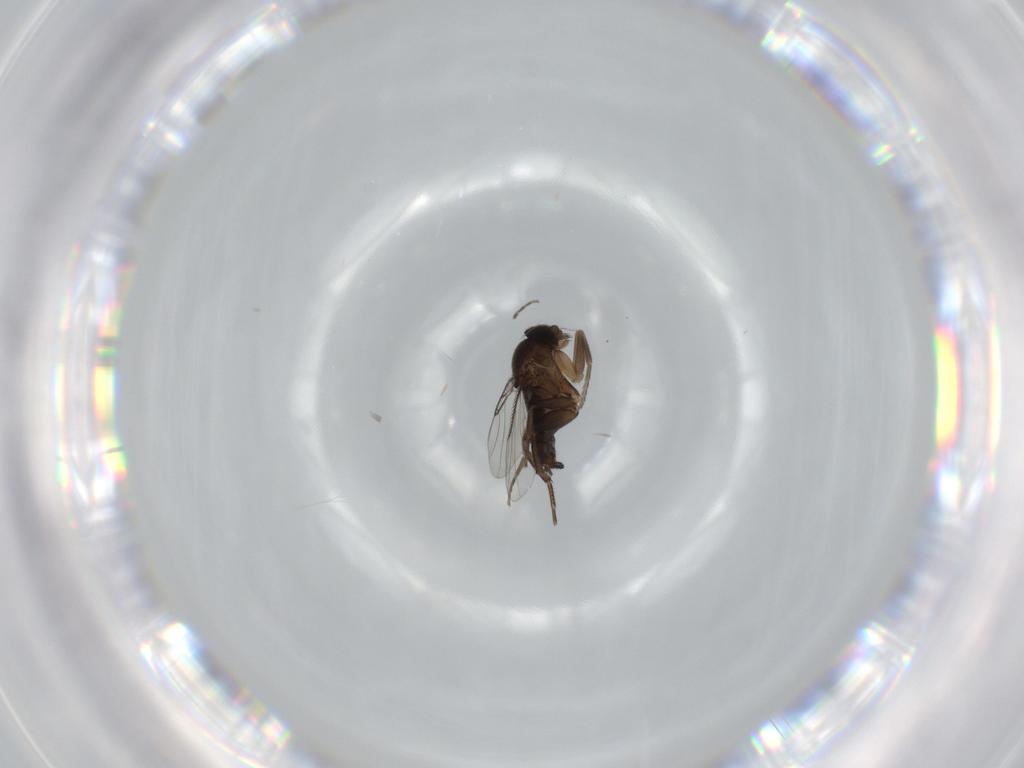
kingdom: Animalia
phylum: Arthropoda
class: Insecta
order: Diptera
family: Phoridae
